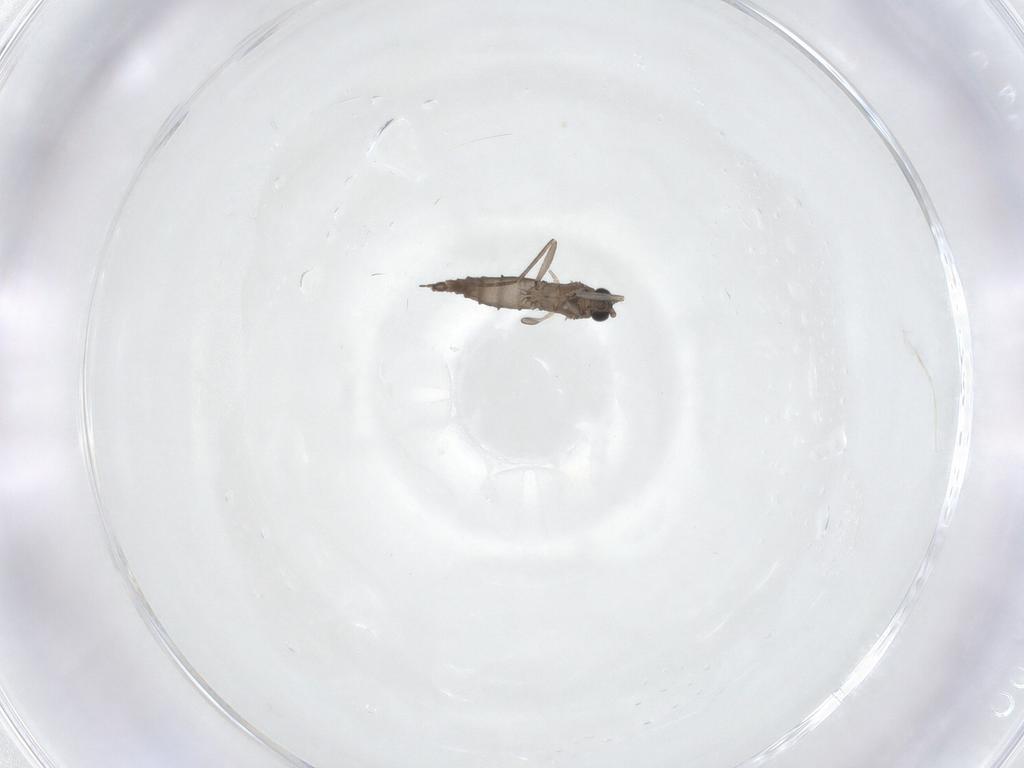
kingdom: Animalia
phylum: Arthropoda
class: Insecta
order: Diptera
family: Sciaridae
